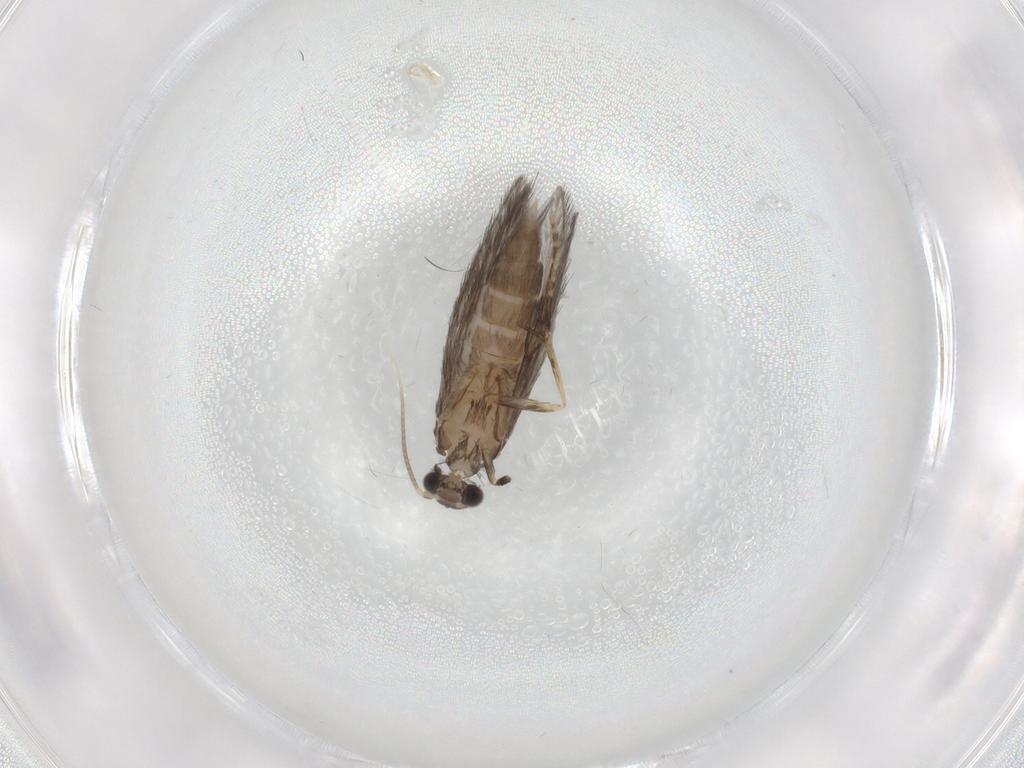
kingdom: Animalia
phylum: Arthropoda
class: Insecta
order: Trichoptera
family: Hydroptilidae
